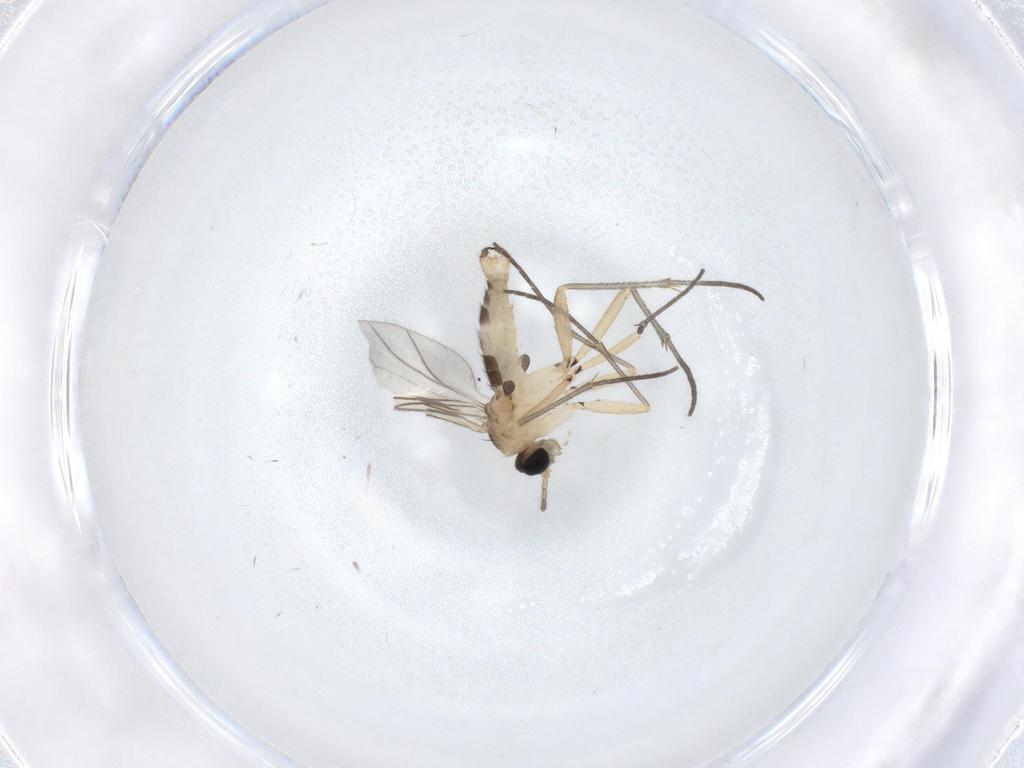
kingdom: Animalia
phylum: Arthropoda
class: Insecta
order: Diptera
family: Sciaridae
